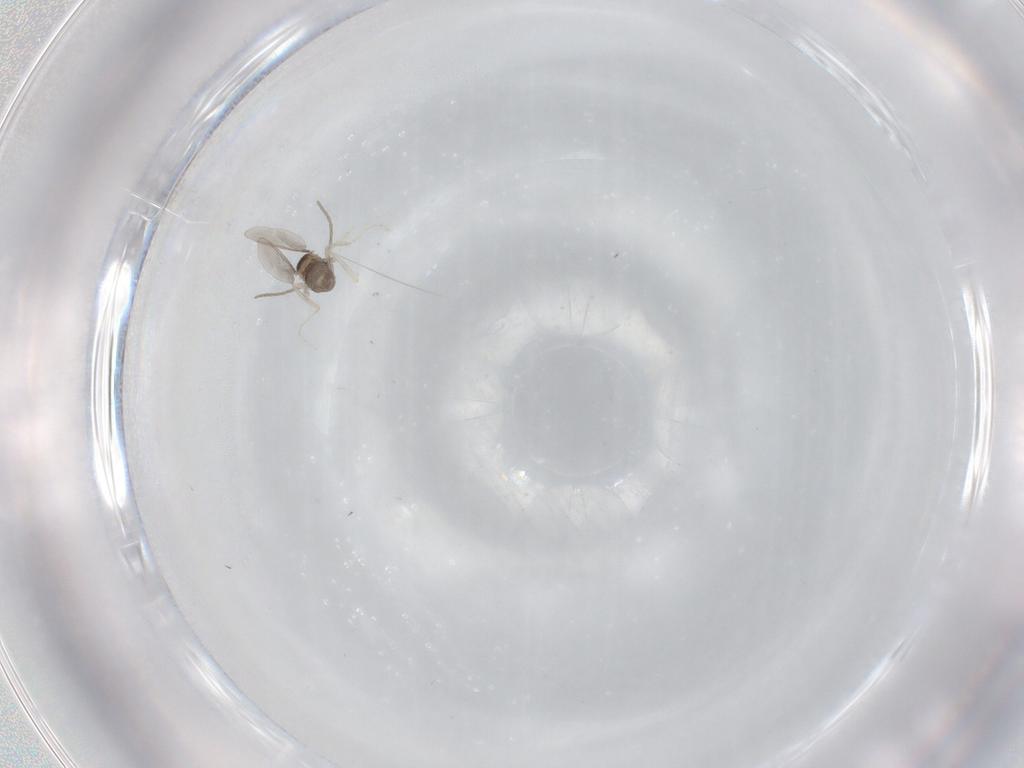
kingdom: Animalia
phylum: Arthropoda
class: Insecta
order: Diptera
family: Cecidomyiidae
